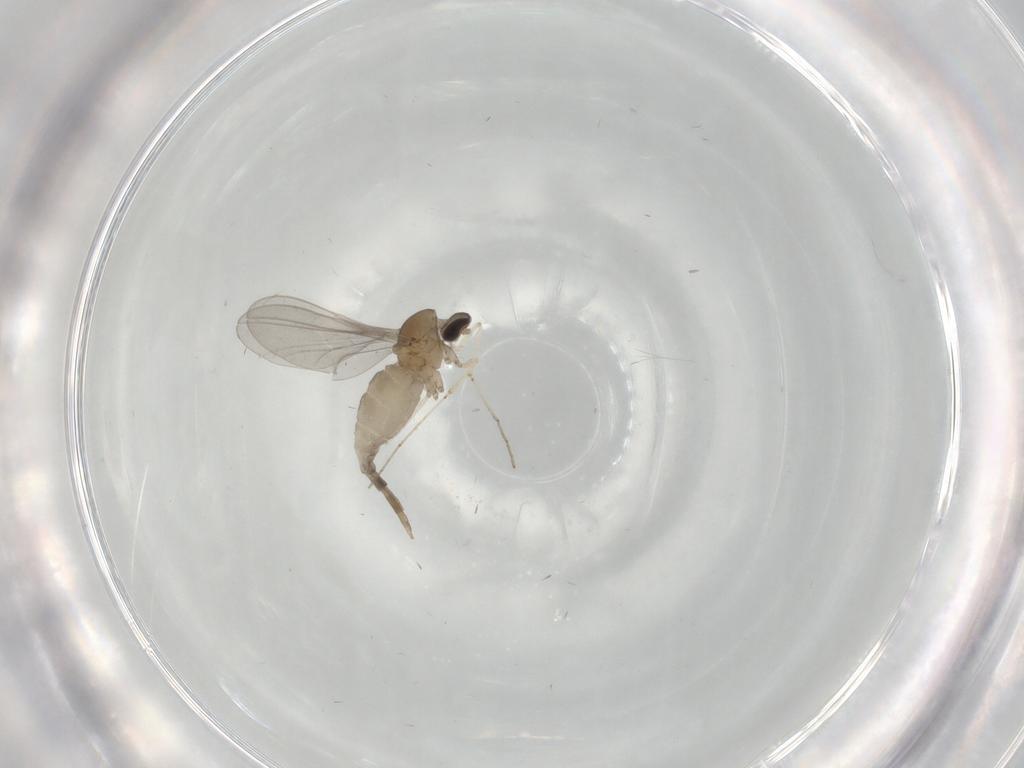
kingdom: Animalia
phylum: Arthropoda
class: Insecta
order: Diptera
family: Cecidomyiidae
